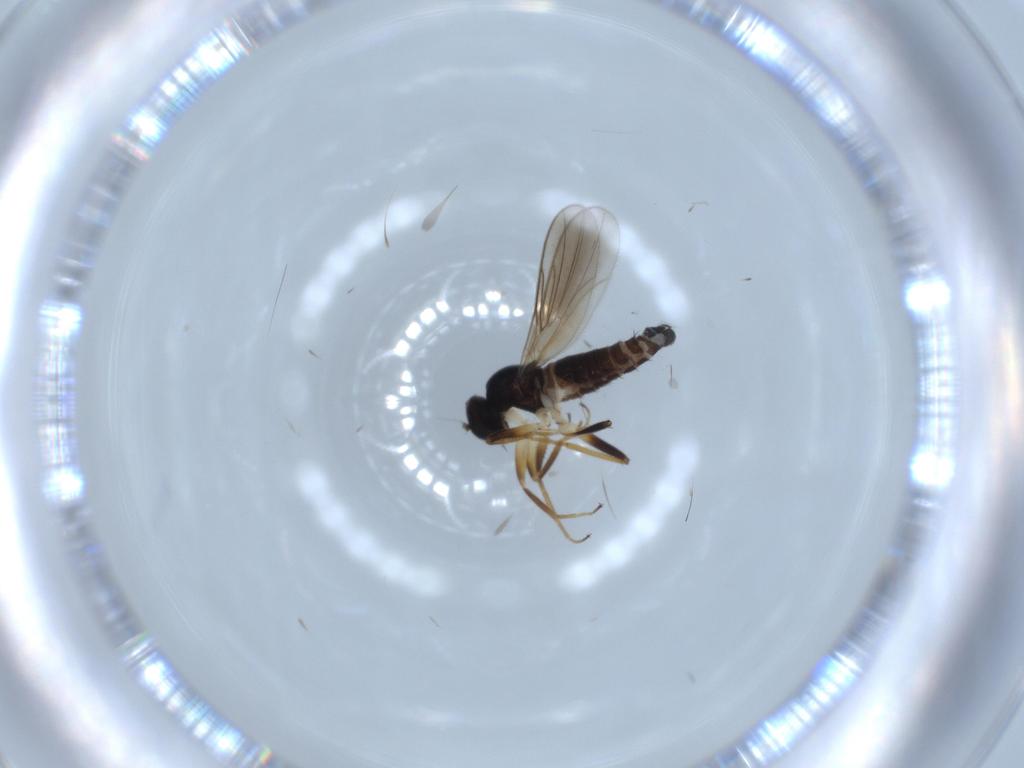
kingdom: Animalia
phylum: Arthropoda
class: Insecta
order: Diptera
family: Hybotidae
